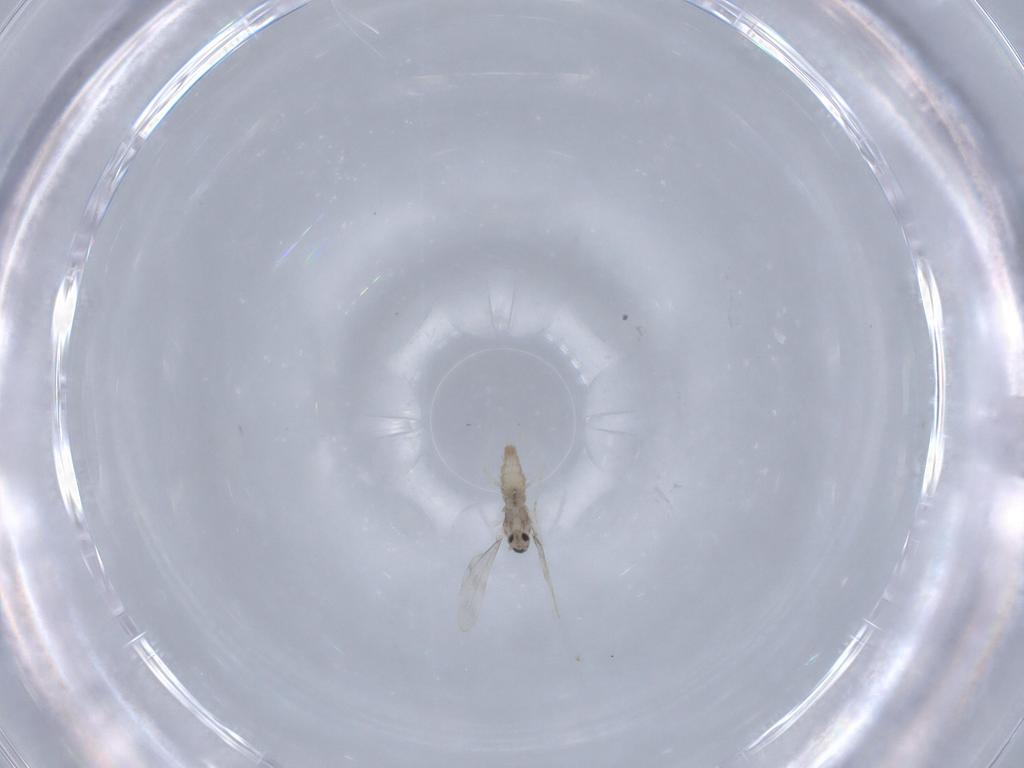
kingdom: Animalia
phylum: Arthropoda
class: Insecta
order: Diptera
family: Cecidomyiidae
